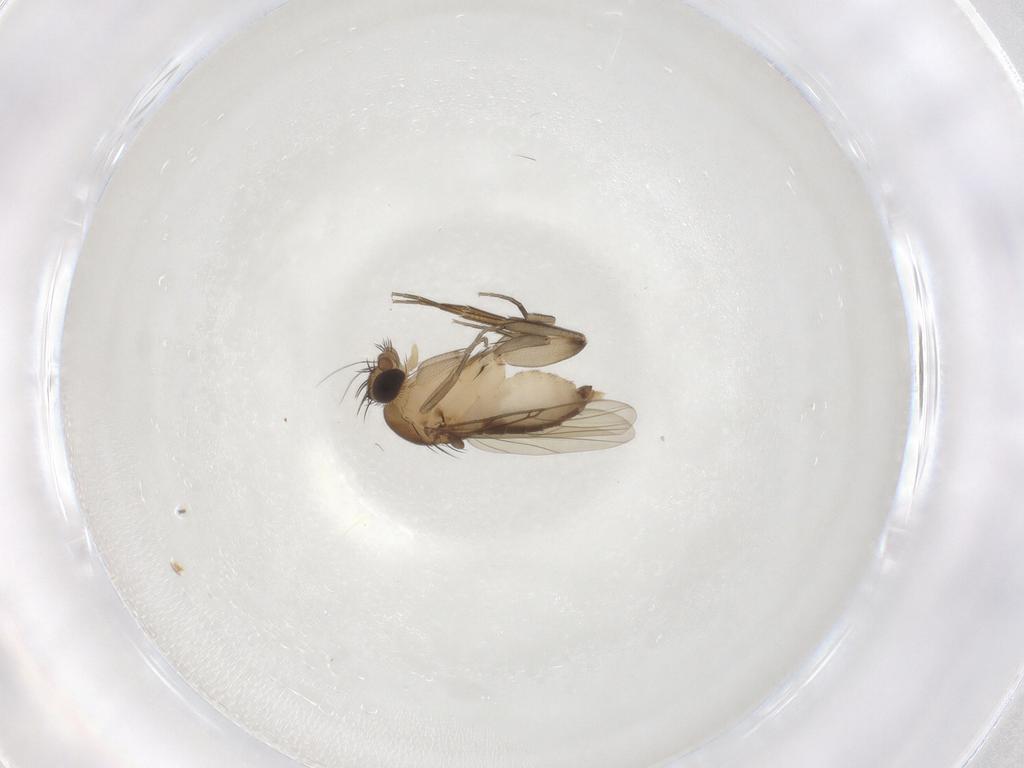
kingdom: Animalia
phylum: Arthropoda
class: Insecta
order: Diptera
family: Phoridae
